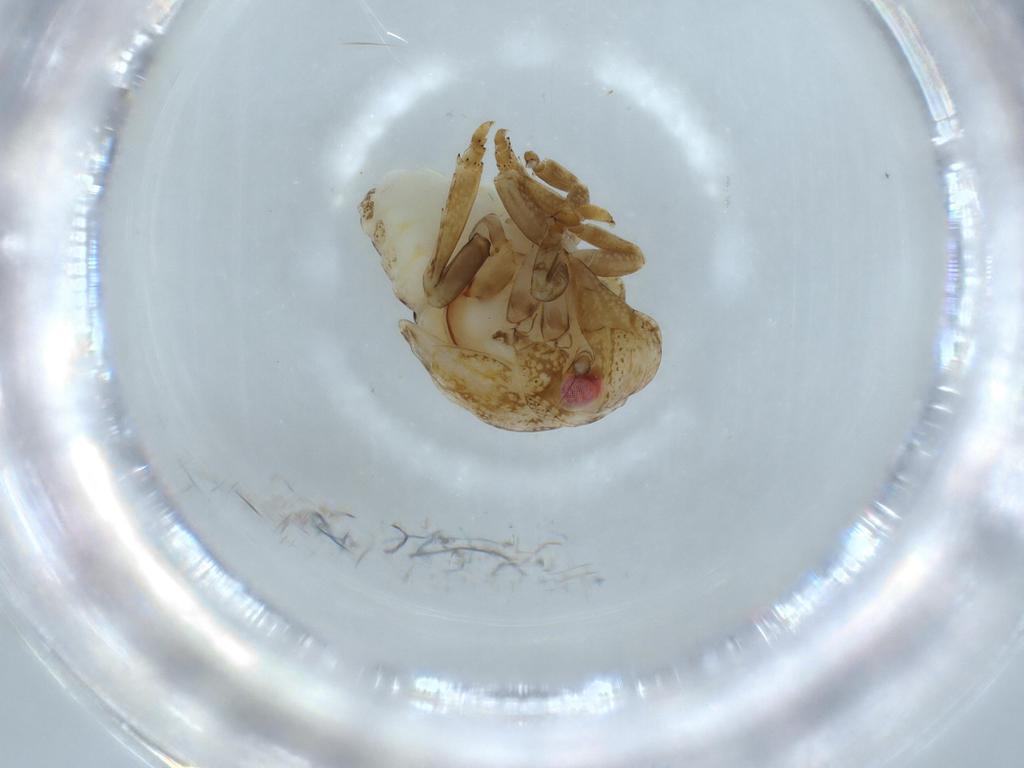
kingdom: Animalia
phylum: Arthropoda
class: Insecta
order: Hemiptera
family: Acanaloniidae
